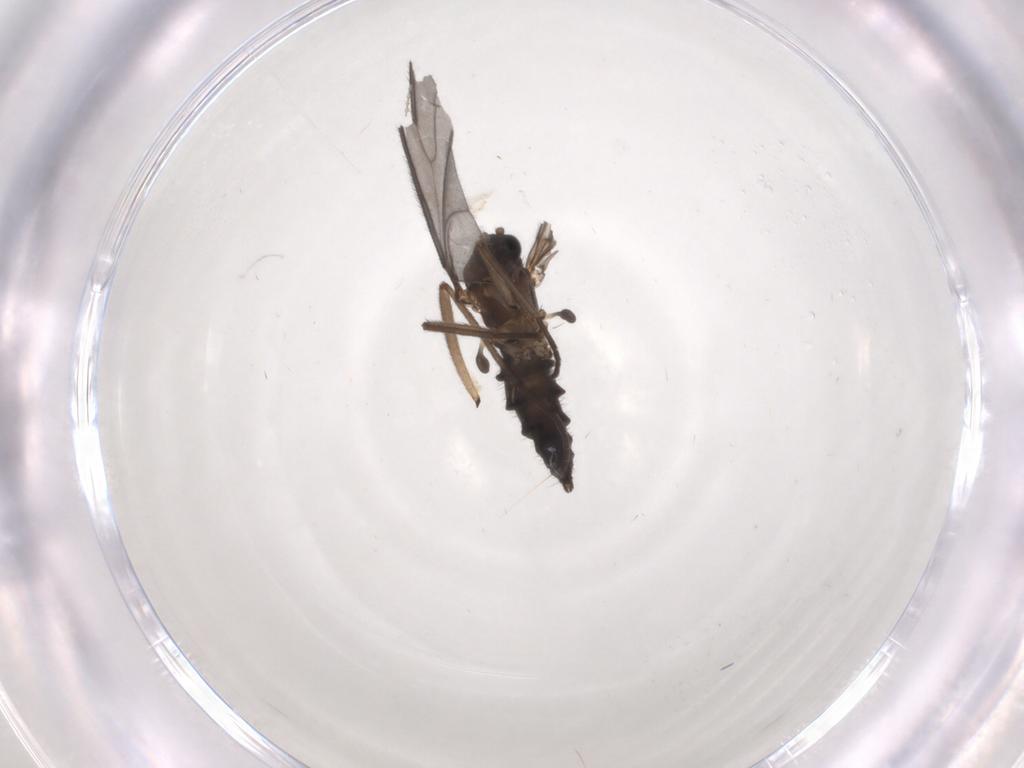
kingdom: Animalia
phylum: Arthropoda
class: Insecta
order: Diptera
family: Sciaridae
